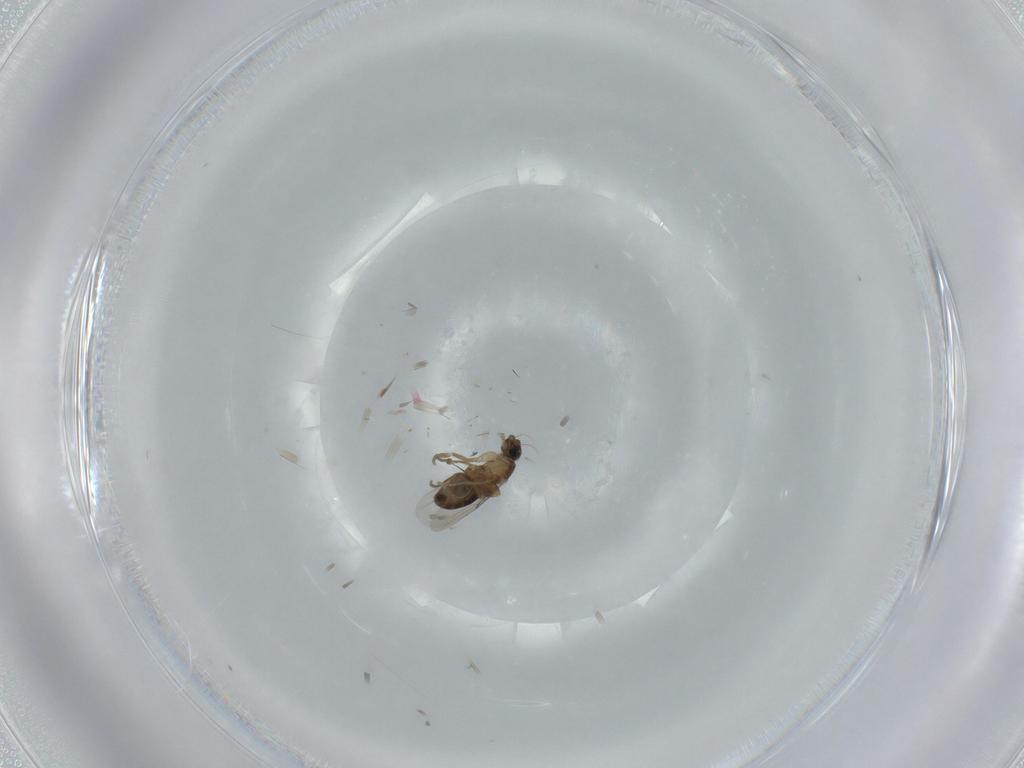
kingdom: Animalia
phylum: Arthropoda
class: Insecta
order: Diptera
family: Phoridae
